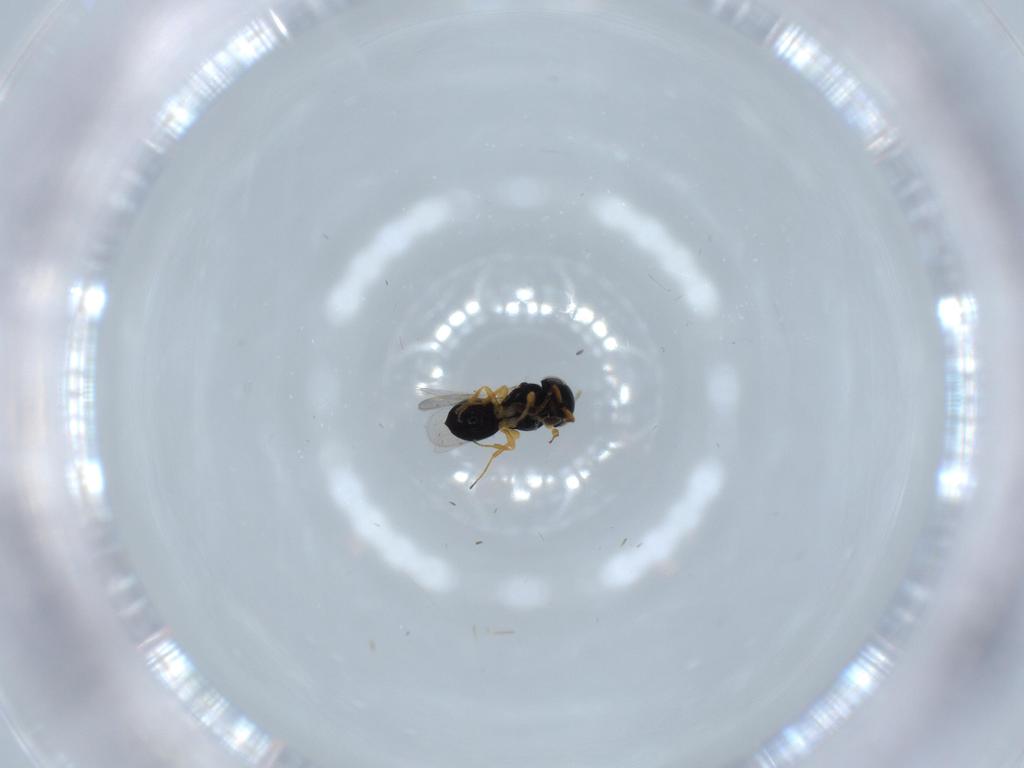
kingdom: Animalia
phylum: Arthropoda
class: Insecta
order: Hymenoptera
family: Scelionidae
